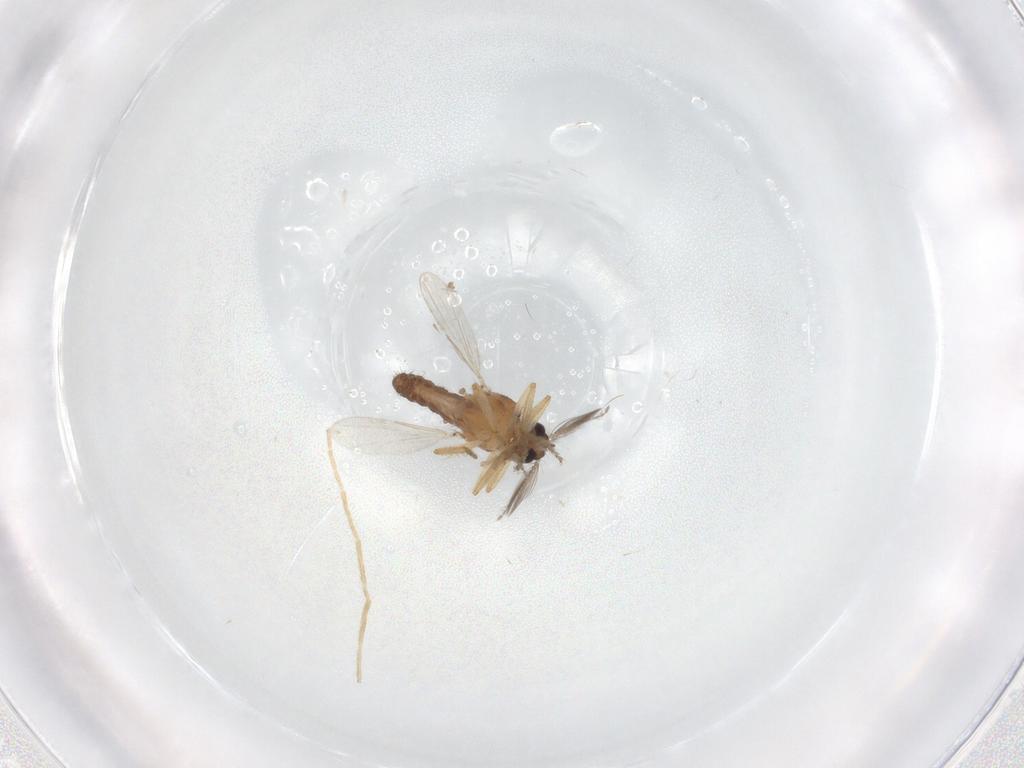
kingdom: Animalia
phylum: Arthropoda
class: Insecta
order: Diptera
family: Ceratopogonidae
